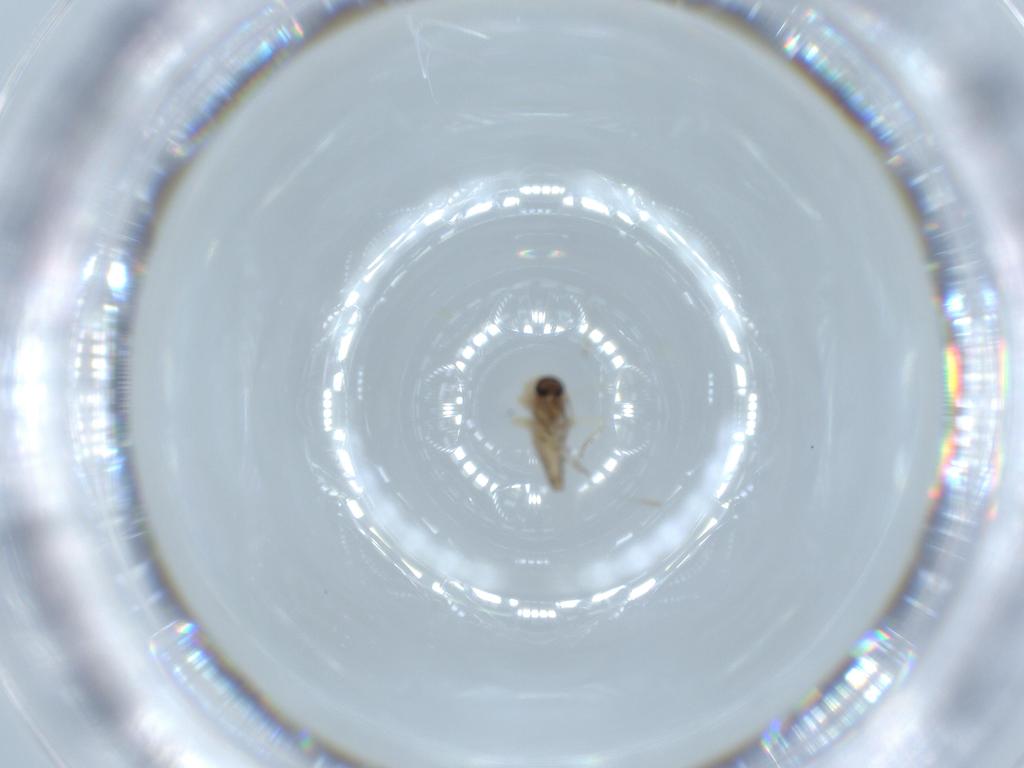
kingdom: Animalia
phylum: Arthropoda
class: Insecta
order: Diptera
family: Ceratopogonidae
